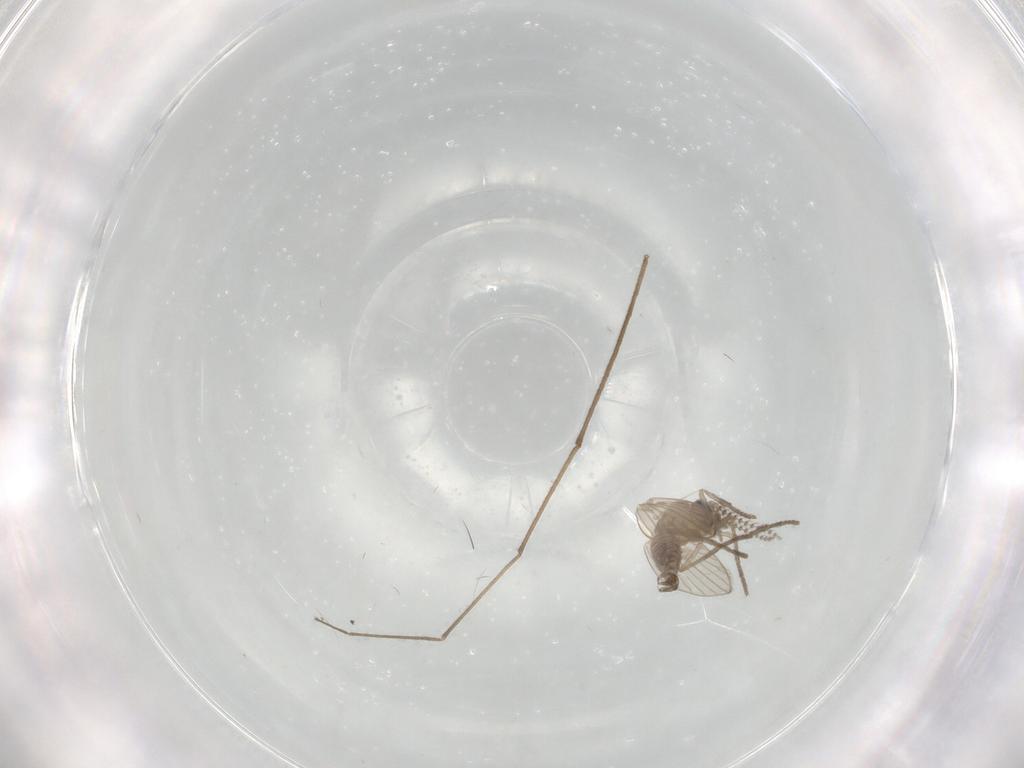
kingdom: Animalia
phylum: Arthropoda
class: Insecta
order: Diptera
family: Psychodidae
